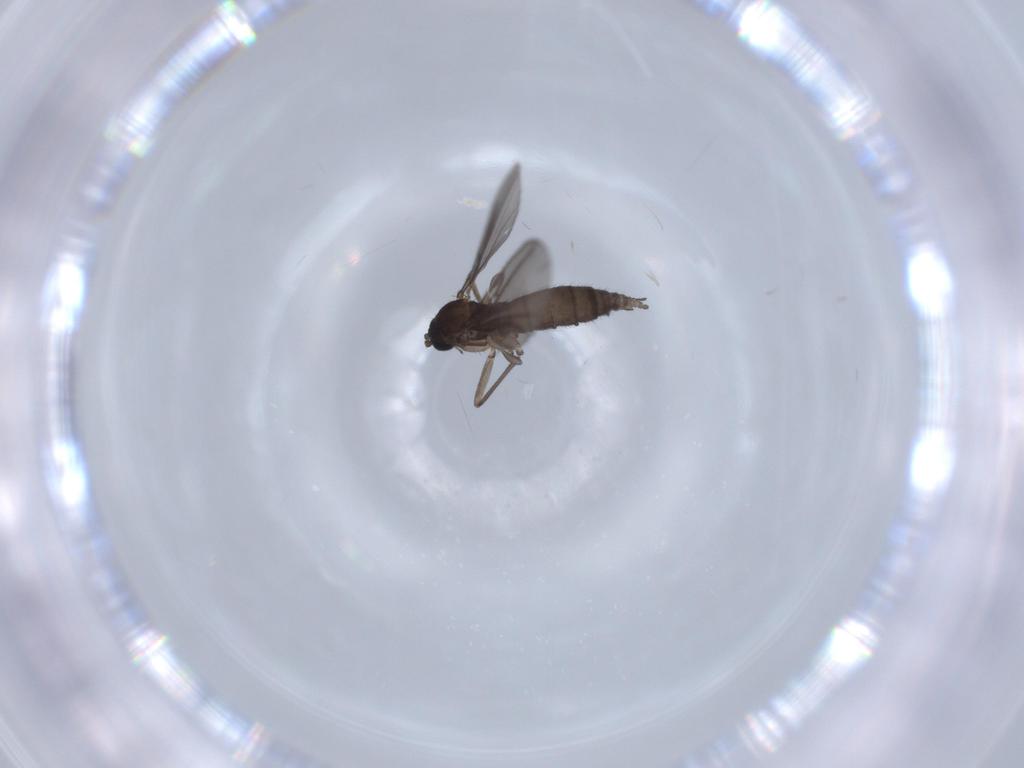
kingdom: Animalia
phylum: Arthropoda
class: Insecta
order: Diptera
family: Sciaridae
